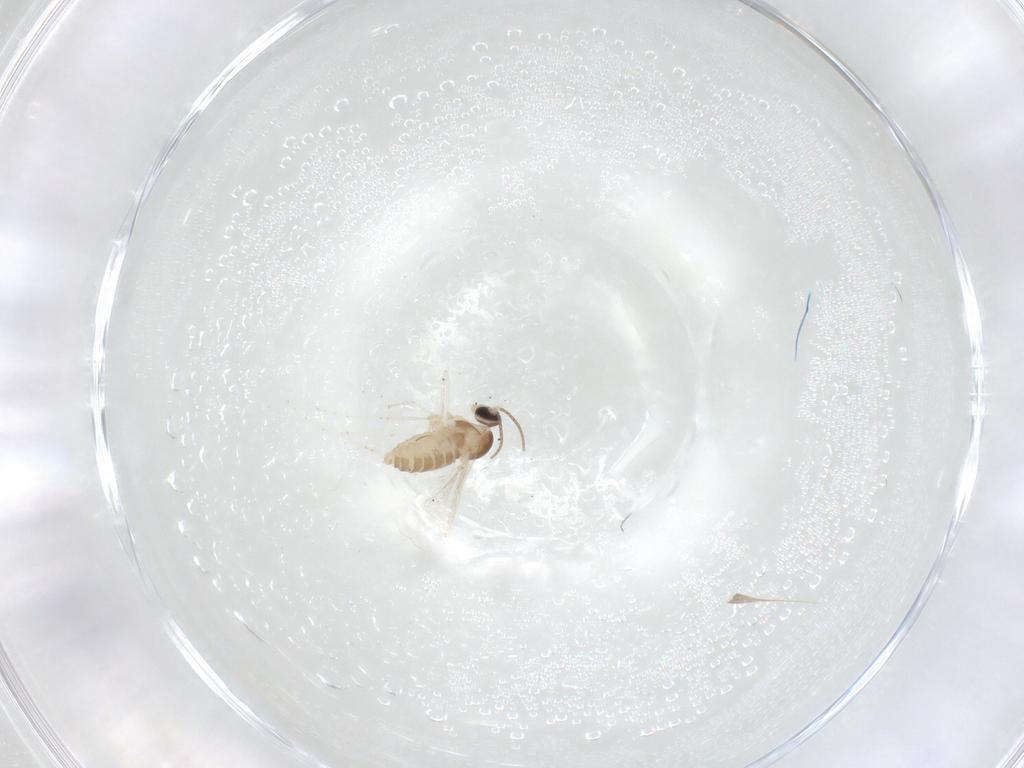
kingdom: Animalia
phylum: Arthropoda
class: Insecta
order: Diptera
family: Cecidomyiidae
